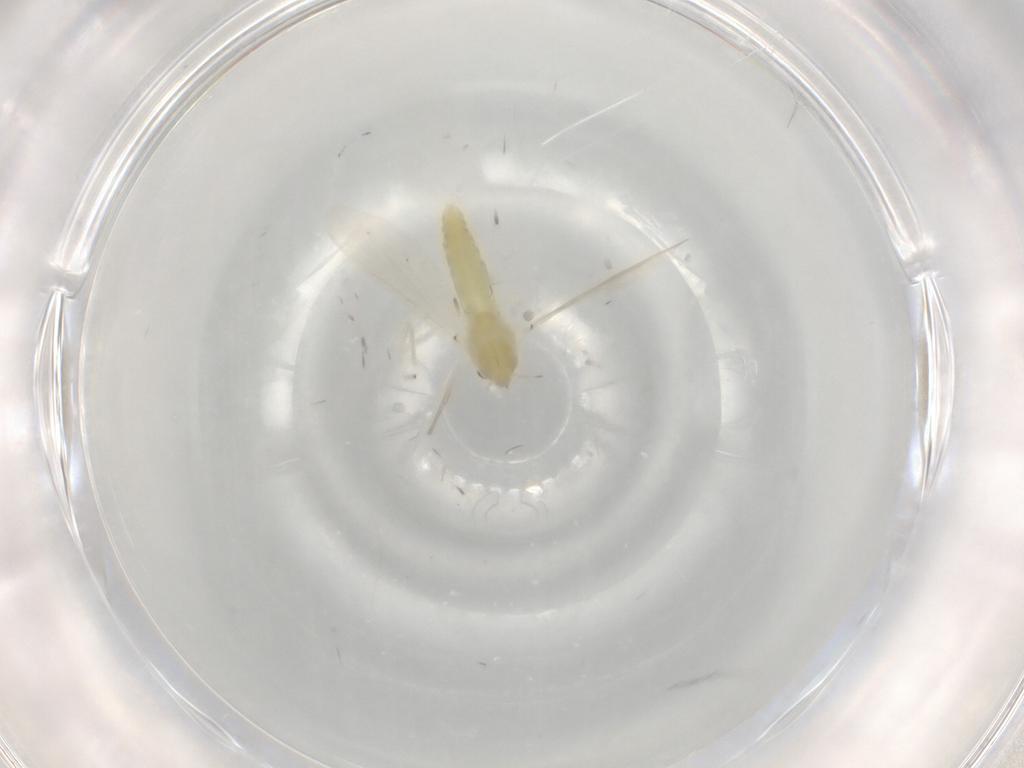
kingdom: Animalia
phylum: Arthropoda
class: Insecta
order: Diptera
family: Chironomidae
